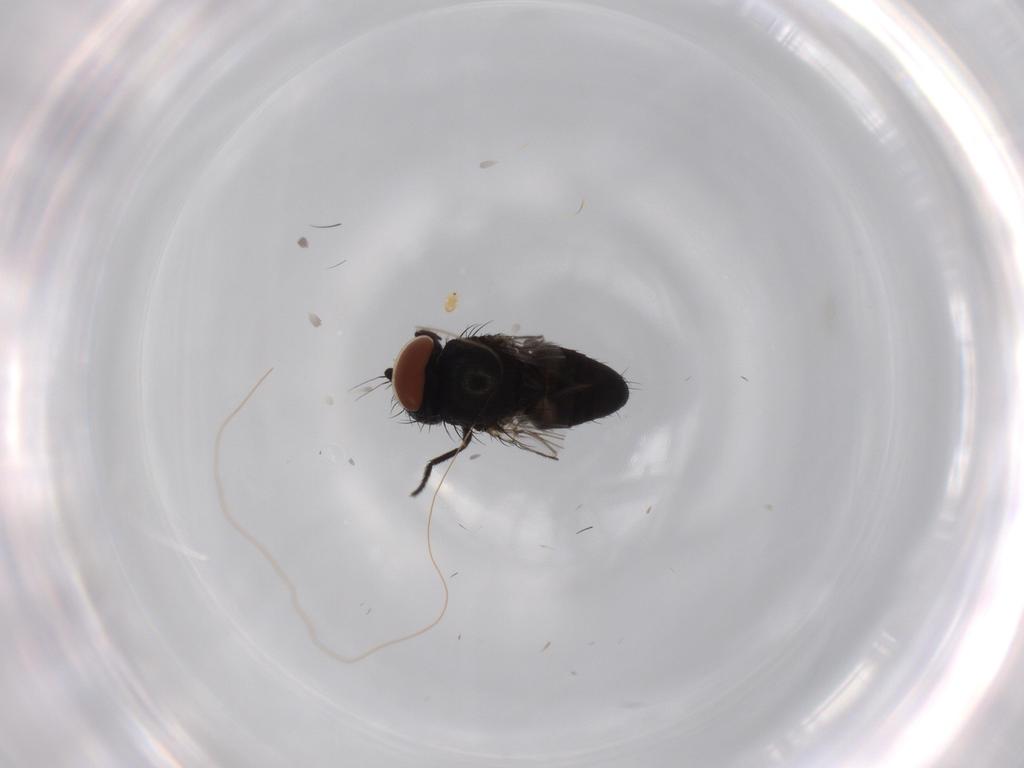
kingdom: Animalia
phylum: Arthropoda
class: Insecta
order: Diptera
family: Milichiidae
